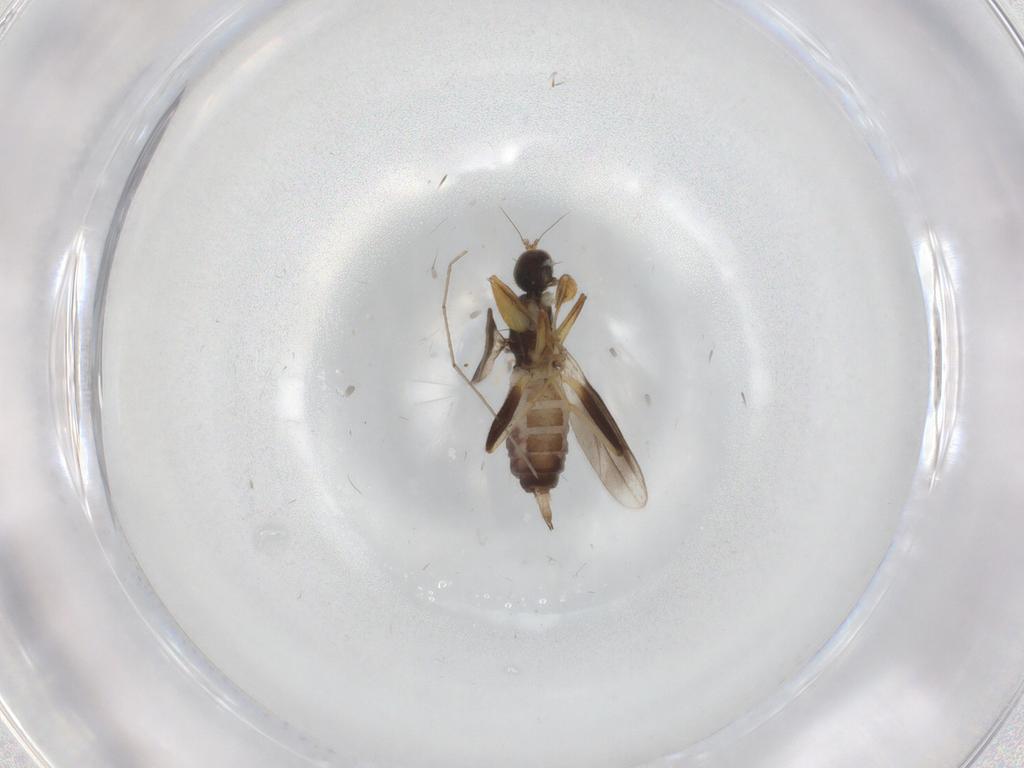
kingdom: Animalia
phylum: Arthropoda
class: Insecta
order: Diptera
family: Hybotidae
